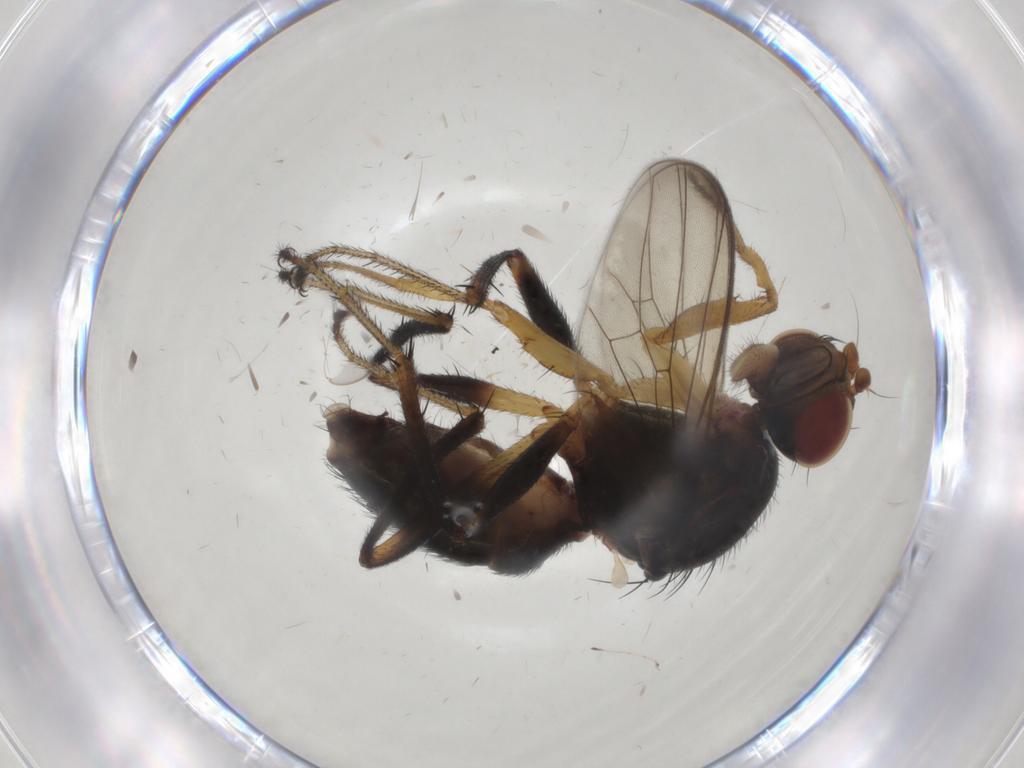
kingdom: Animalia
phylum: Arthropoda
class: Insecta
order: Diptera
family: Sepsidae
